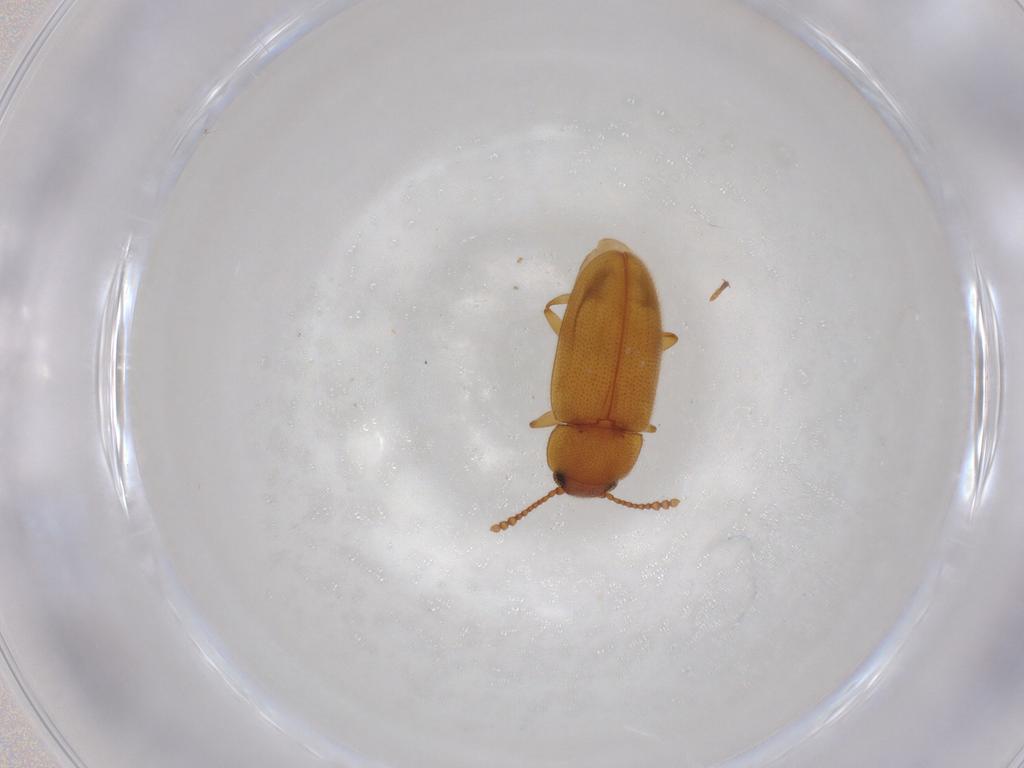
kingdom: Animalia
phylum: Arthropoda
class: Insecta
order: Coleoptera
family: Erotylidae
